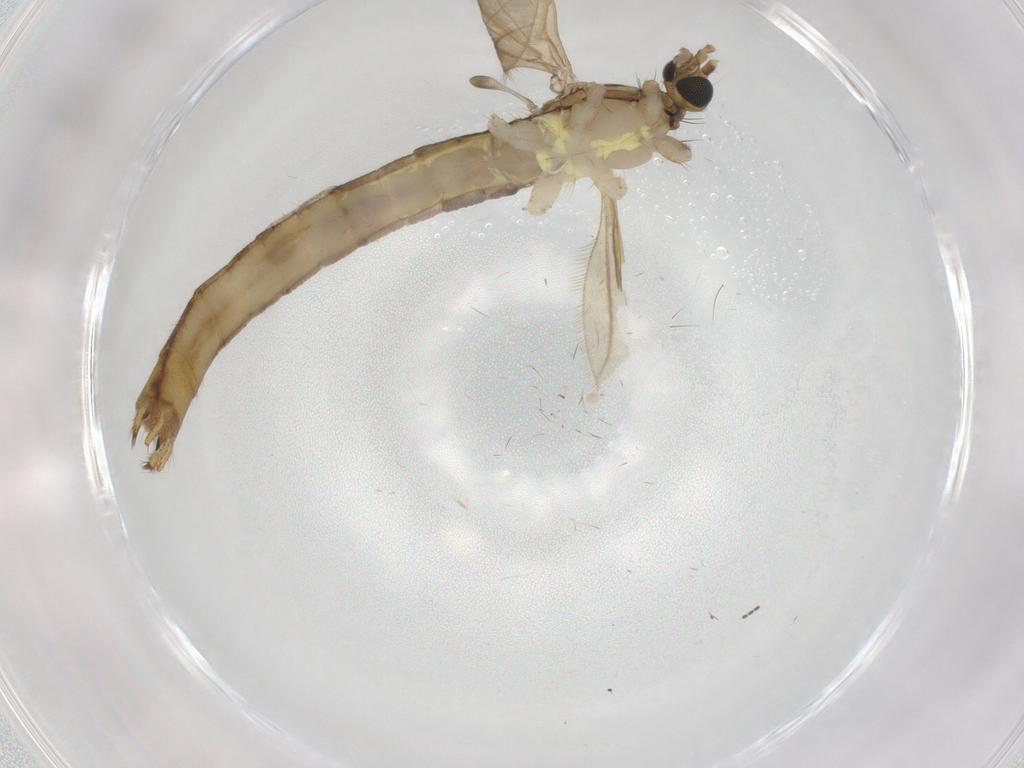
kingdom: Animalia
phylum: Arthropoda
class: Insecta
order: Diptera
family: Limoniidae
